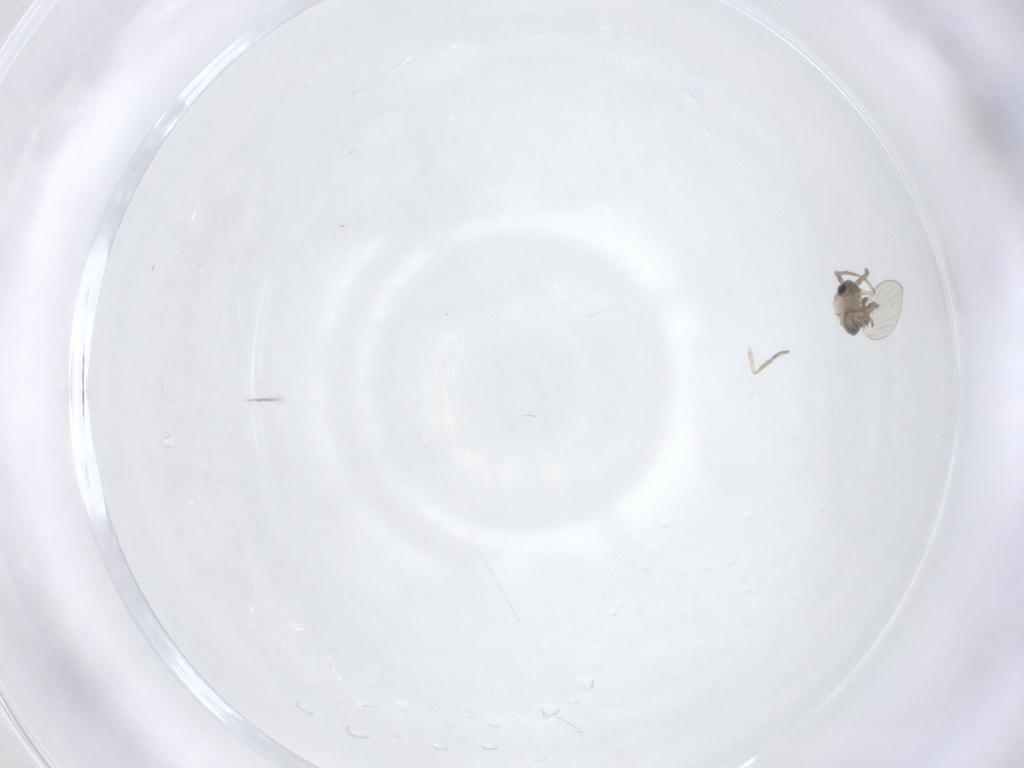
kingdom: Animalia
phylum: Arthropoda
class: Insecta
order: Diptera
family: Psychodidae
